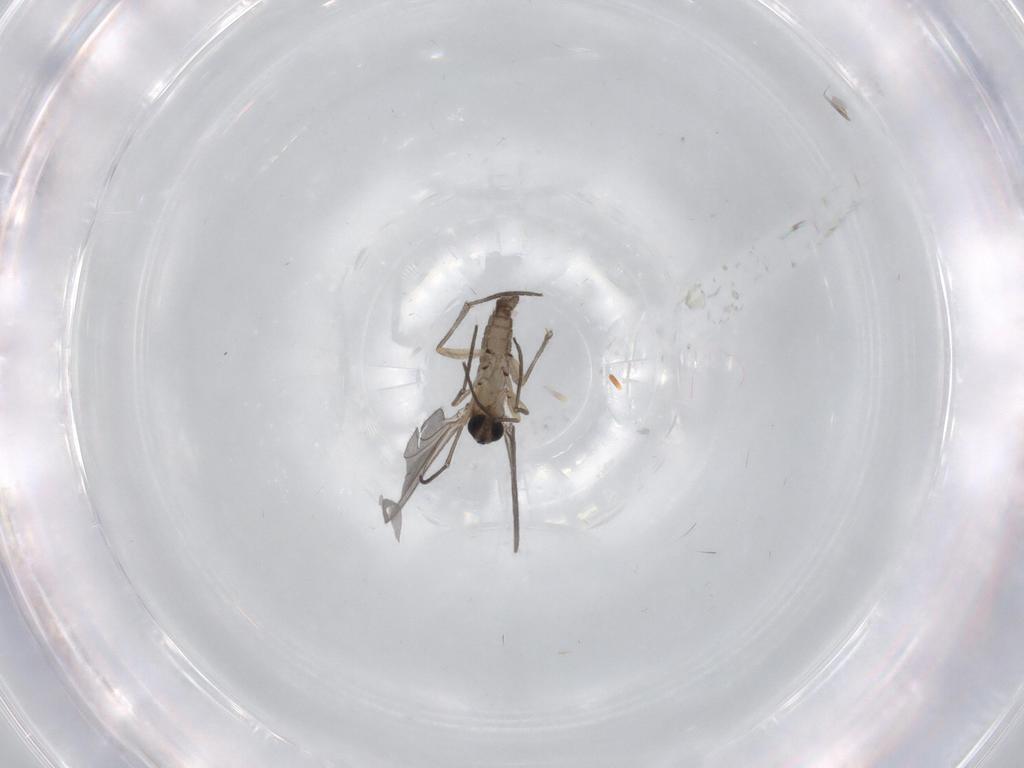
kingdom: Animalia
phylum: Arthropoda
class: Insecta
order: Diptera
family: Sciaridae
